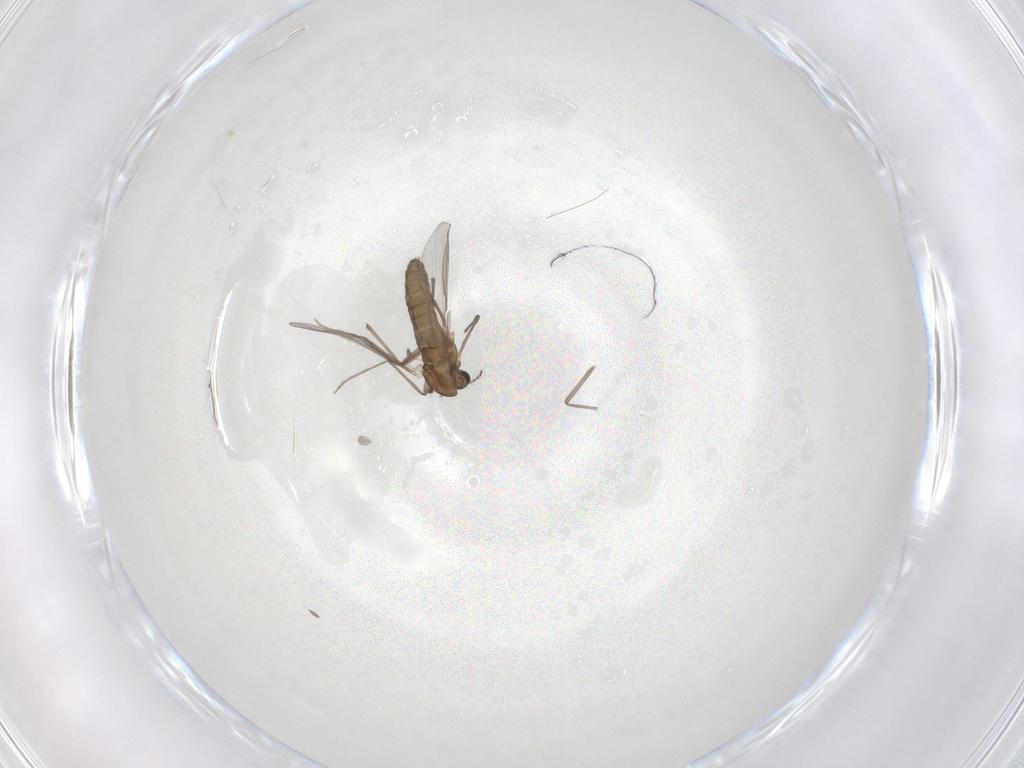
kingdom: Animalia
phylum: Arthropoda
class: Insecta
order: Diptera
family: Chironomidae
